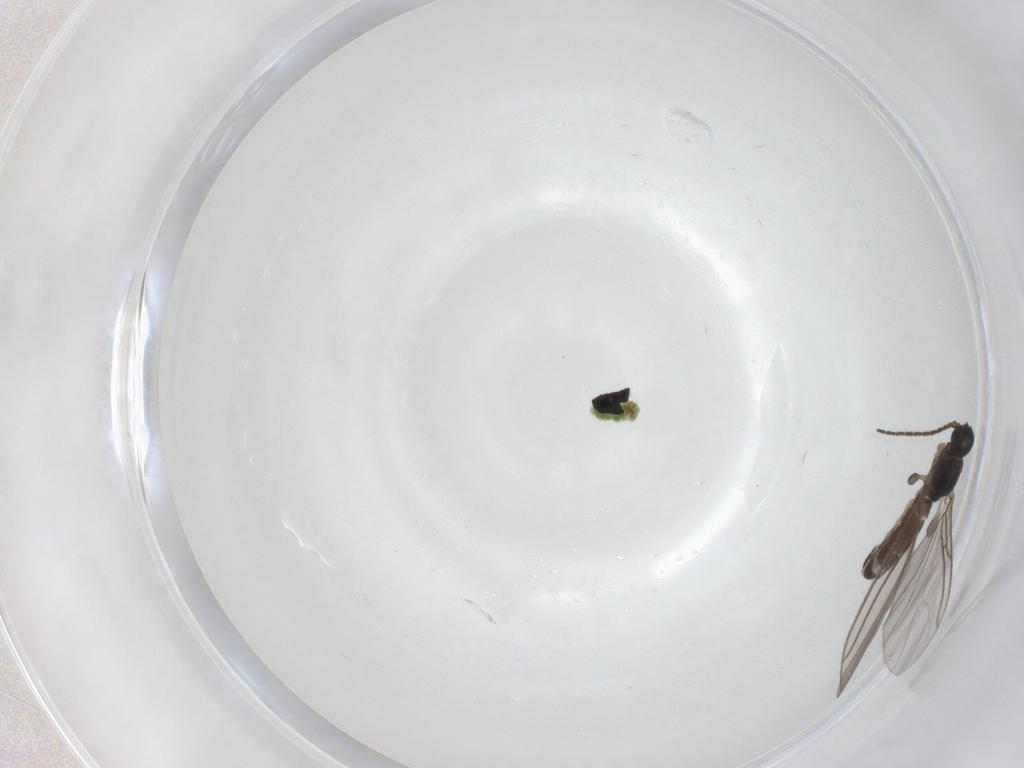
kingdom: Animalia
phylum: Arthropoda
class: Insecta
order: Diptera
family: Sciaridae
